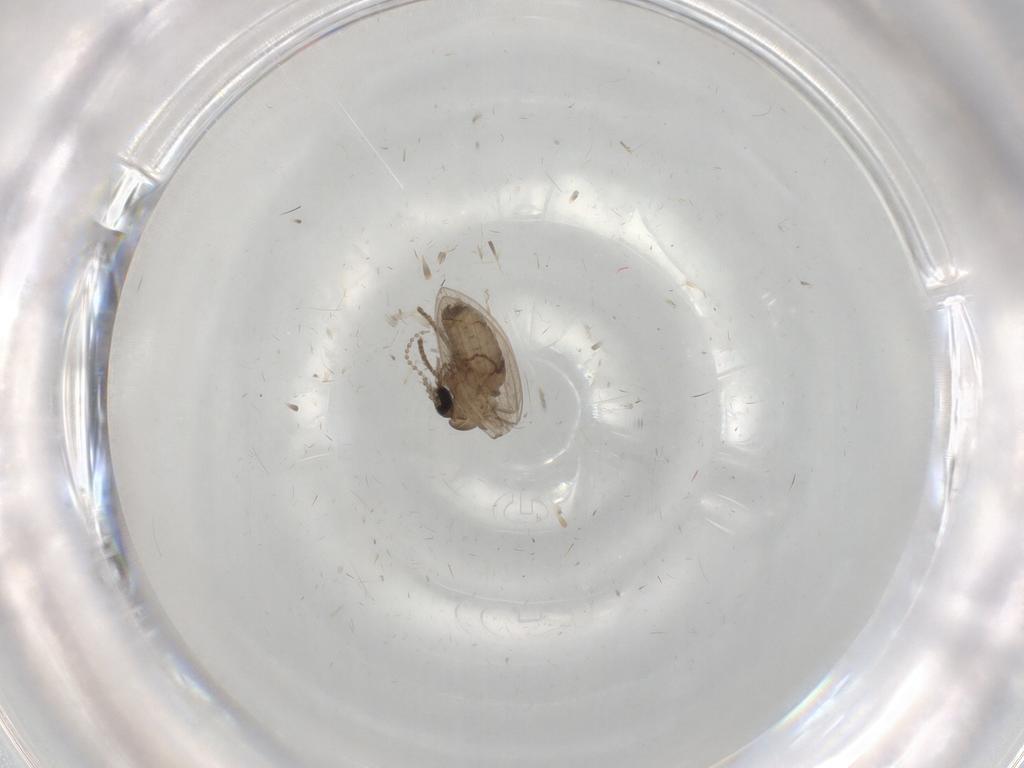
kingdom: Animalia
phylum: Arthropoda
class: Insecta
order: Diptera
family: Psychodidae
